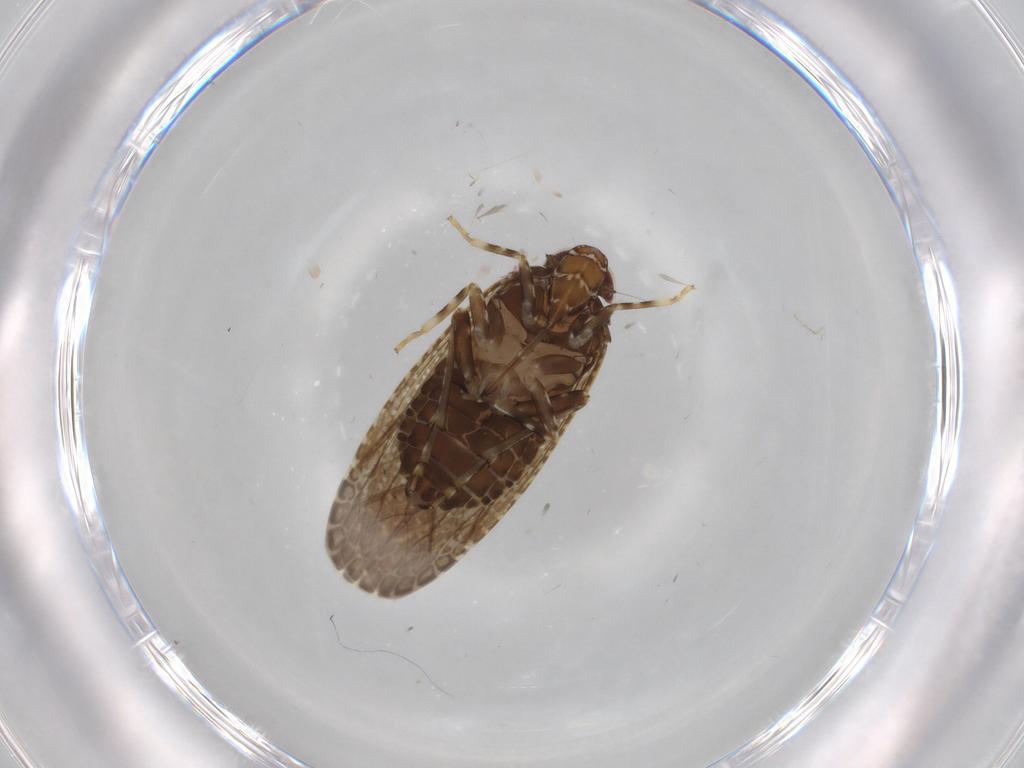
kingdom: Animalia
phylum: Arthropoda
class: Insecta
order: Hemiptera
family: Achilidae
